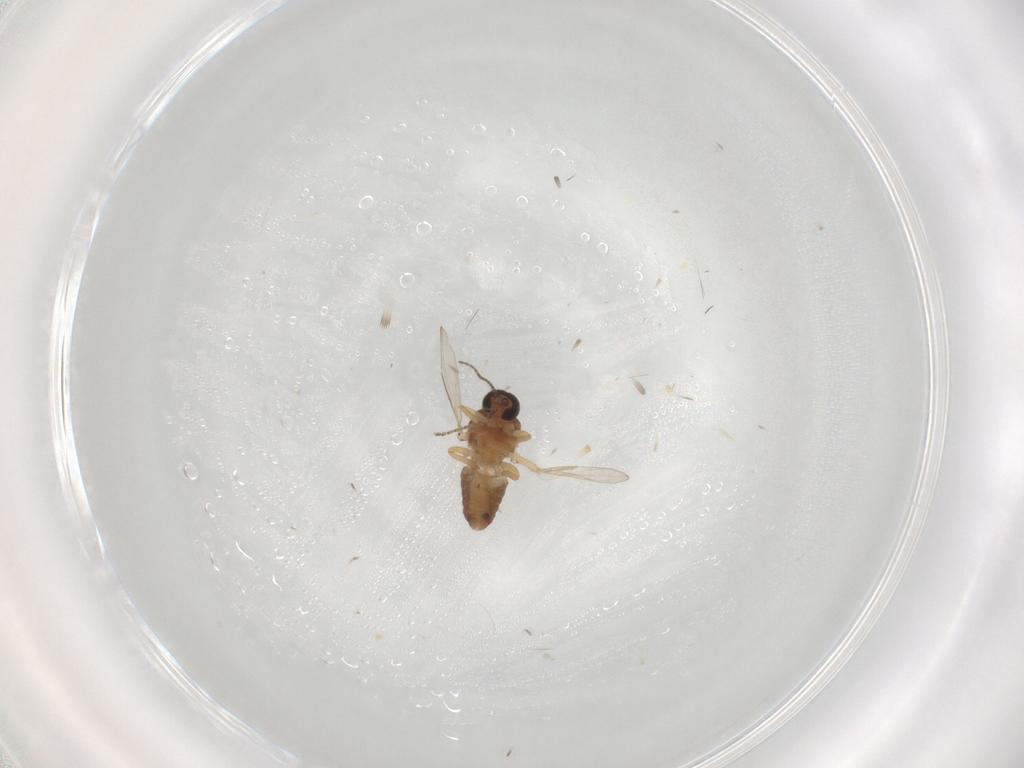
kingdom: Animalia
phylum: Arthropoda
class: Insecta
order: Diptera
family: Ceratopogonidae
